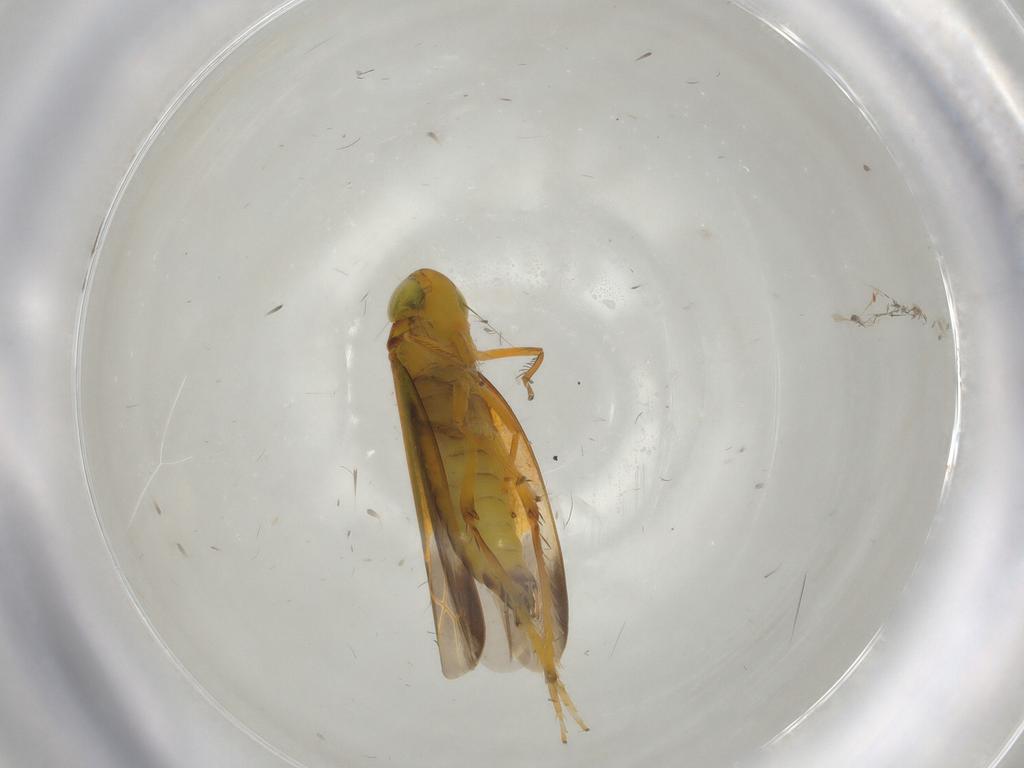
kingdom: Animalia
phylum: Arthropoda
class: Insecta
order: Hemiptera
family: Cicadellidae
